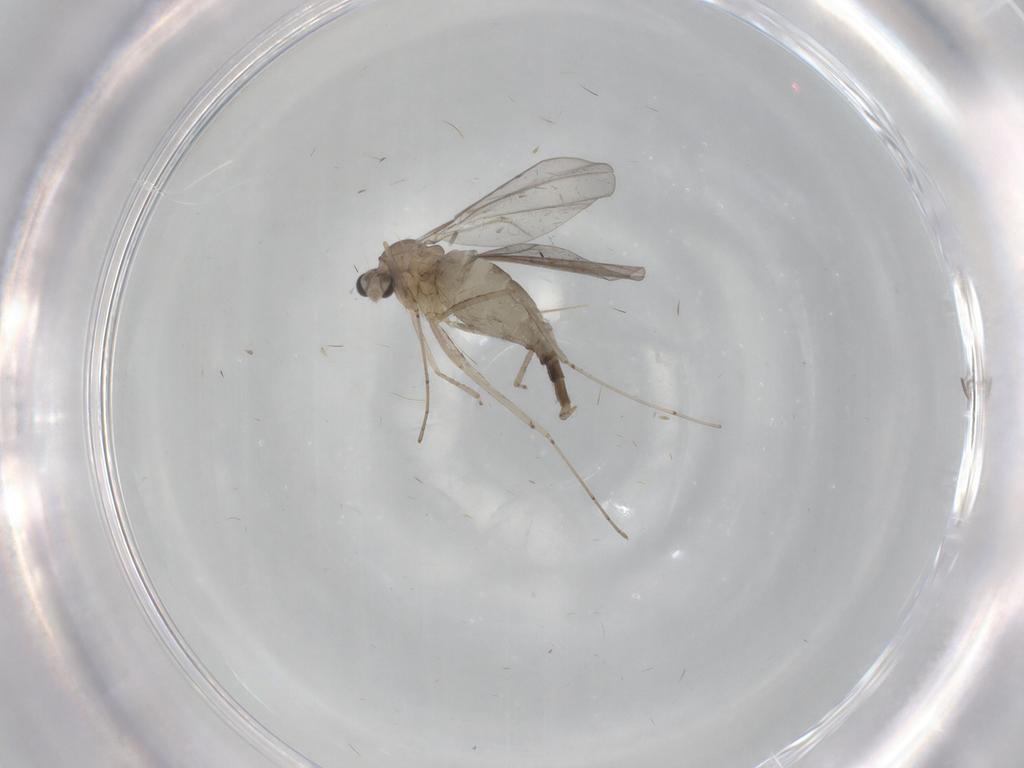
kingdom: Animalia
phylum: Arthropoda
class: Insecta
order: Diptera
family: Cecidomyiidae
